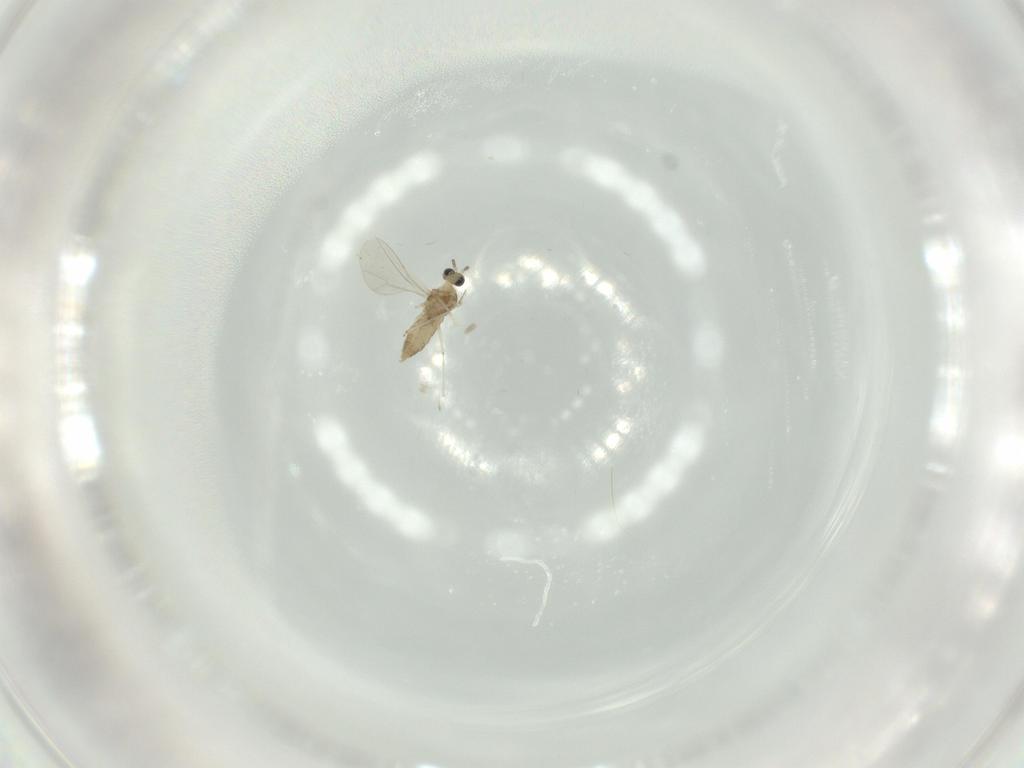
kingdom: Animalia
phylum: Arthropoda
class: Insecta
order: Diptera
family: Cecidomyiidae
